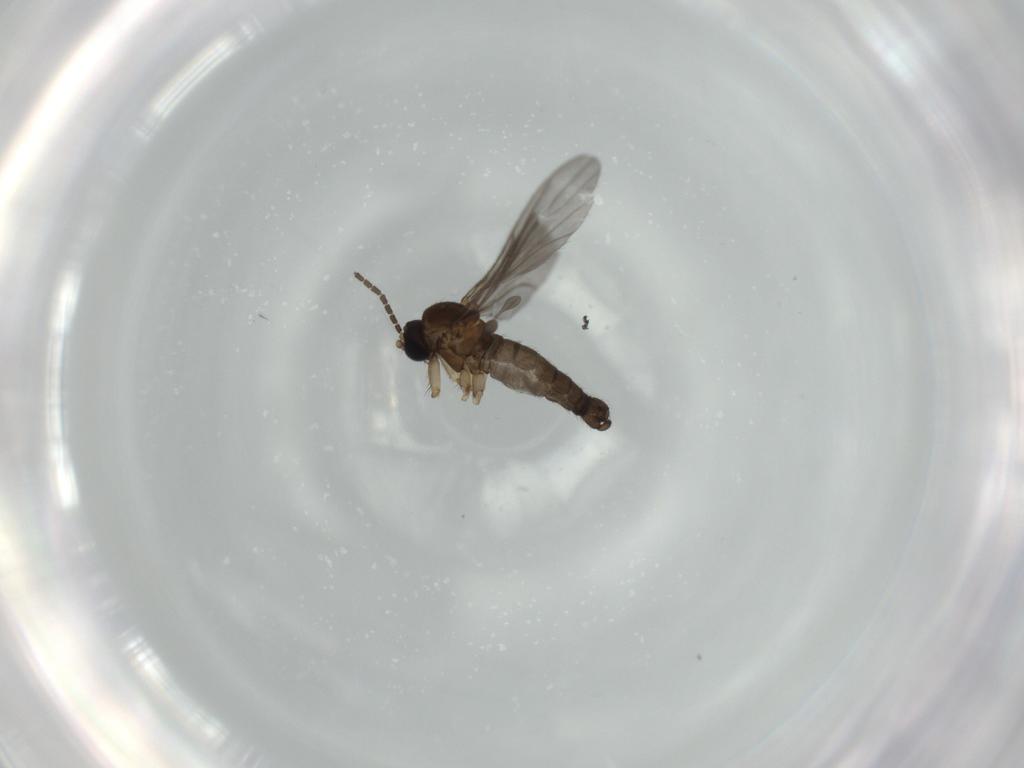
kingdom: Animalia
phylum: Arthropoda
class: Insecta
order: Diptera
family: Sciaridae
